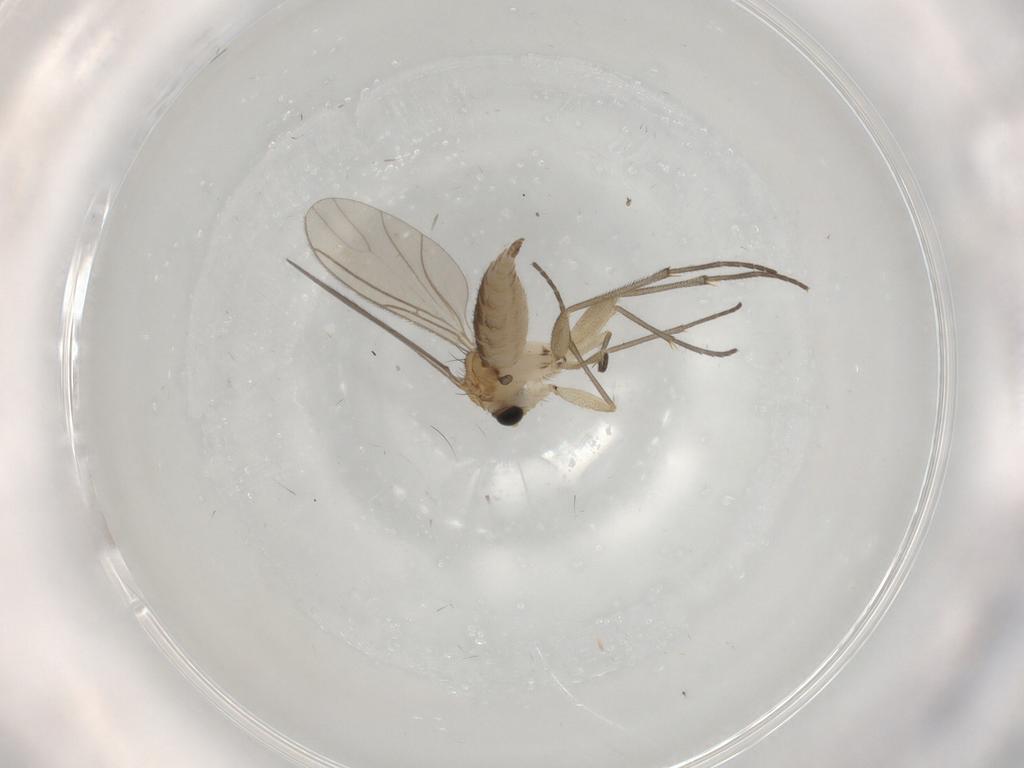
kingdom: Animalia
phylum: Arthropoda
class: Insecta
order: Diptera
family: Sciaridae
